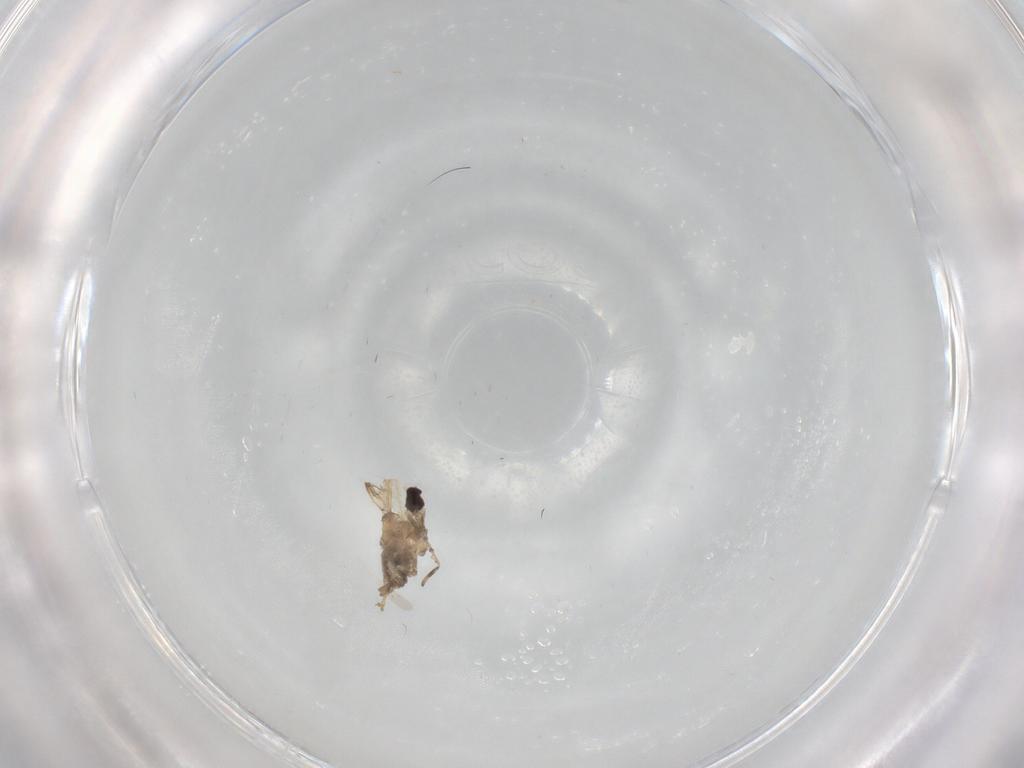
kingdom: Animalia
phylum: Arthropoda
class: Insecta
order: Diptera
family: Cecidomyiidae
